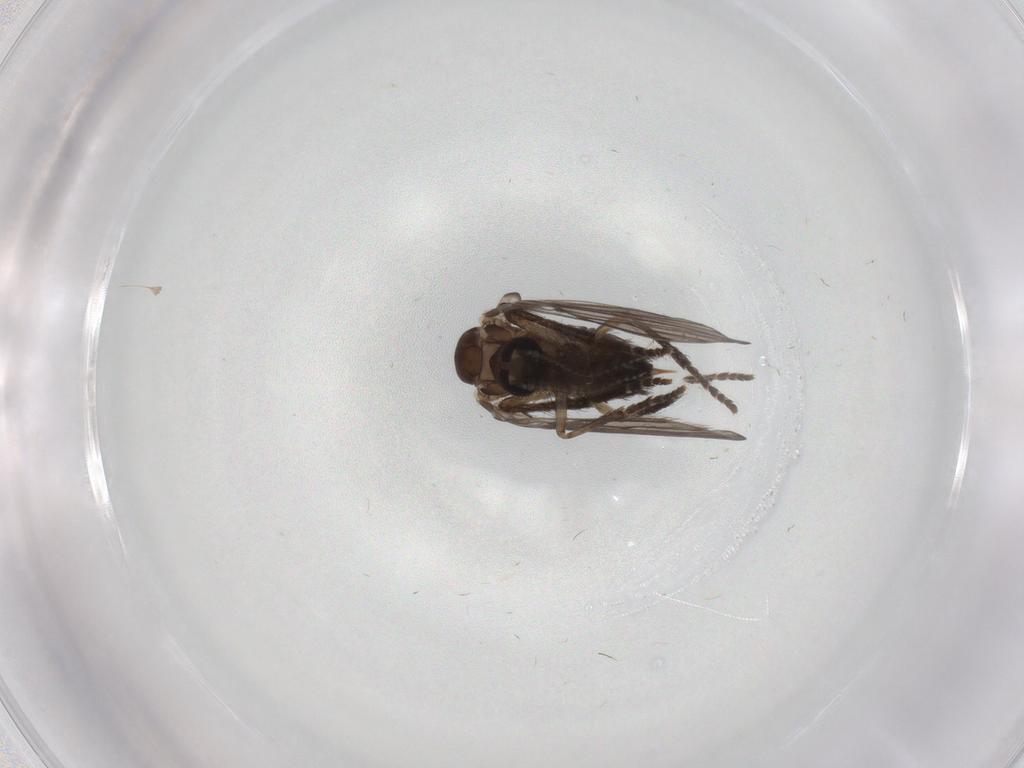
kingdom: Animalia
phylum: Arthropoda
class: Insecta
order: Diptera
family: Psychodidae
